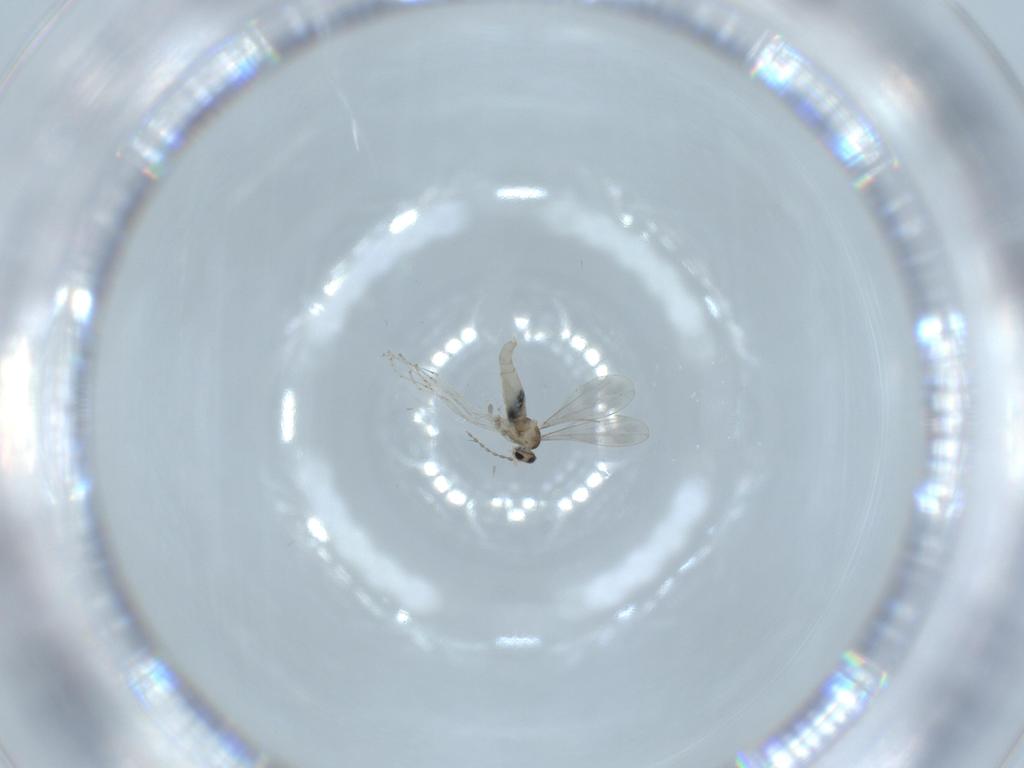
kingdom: Animalia
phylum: Arthropoda
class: Insecta
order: Diptera
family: Cecidomyiidae
